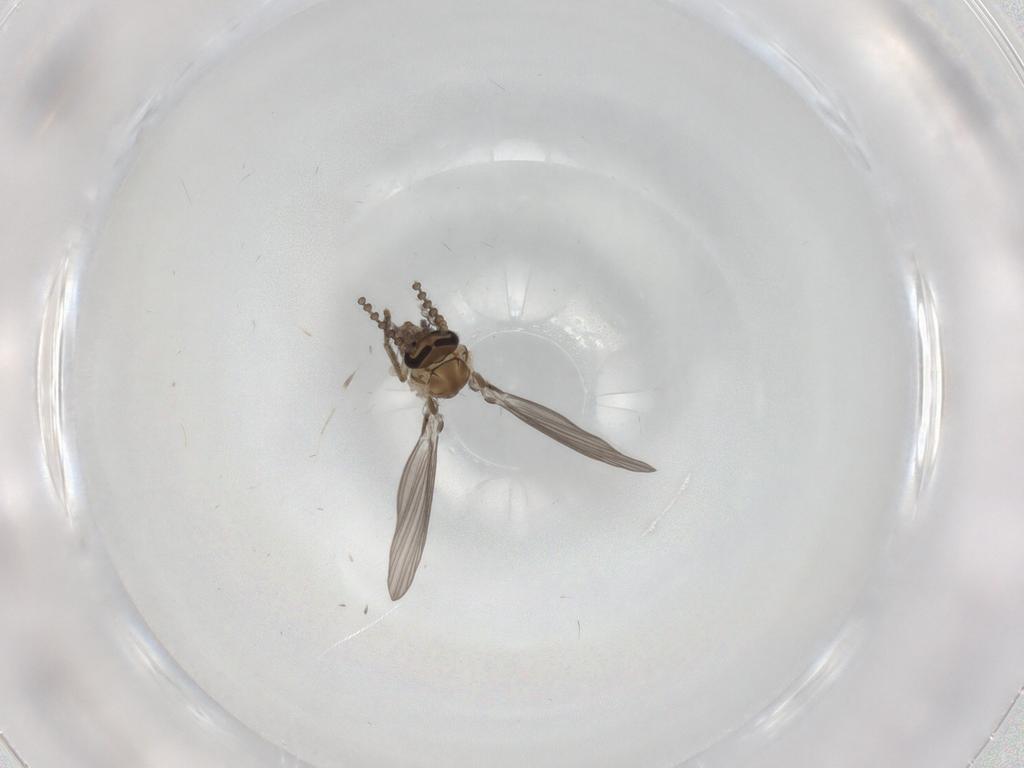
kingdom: Animalia
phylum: Arthropoda
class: Insecta
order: Diptera
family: Psychodidae
